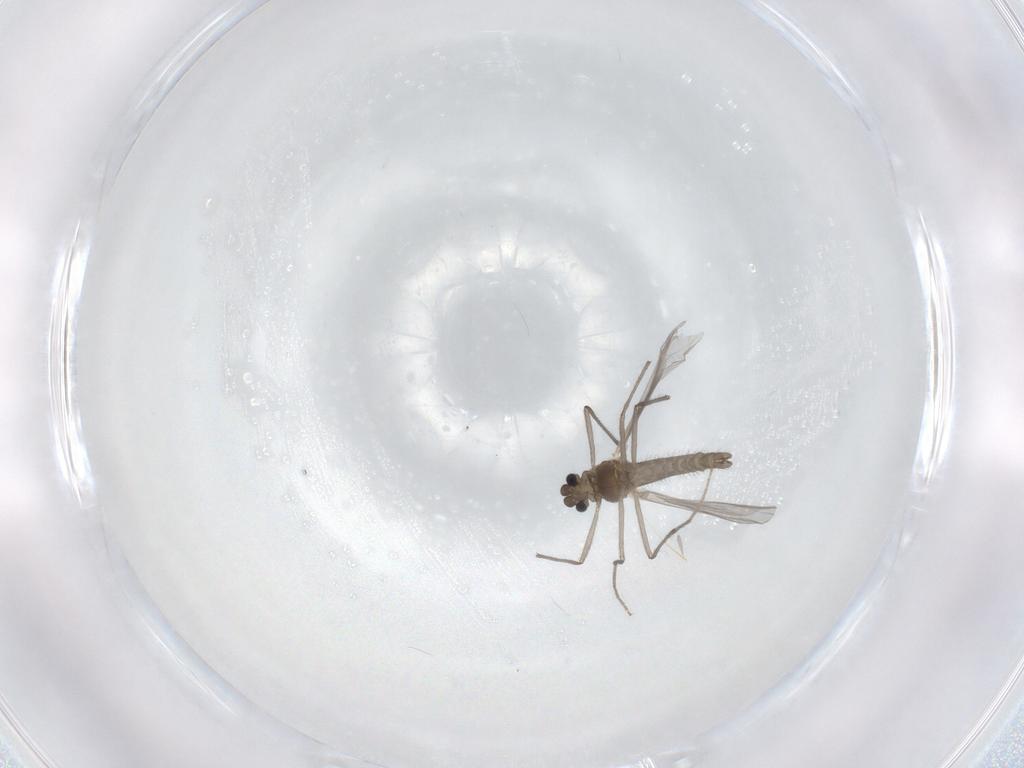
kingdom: Animalia
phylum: Arthropoda
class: Insecta
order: Diptera
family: Chironomidae
